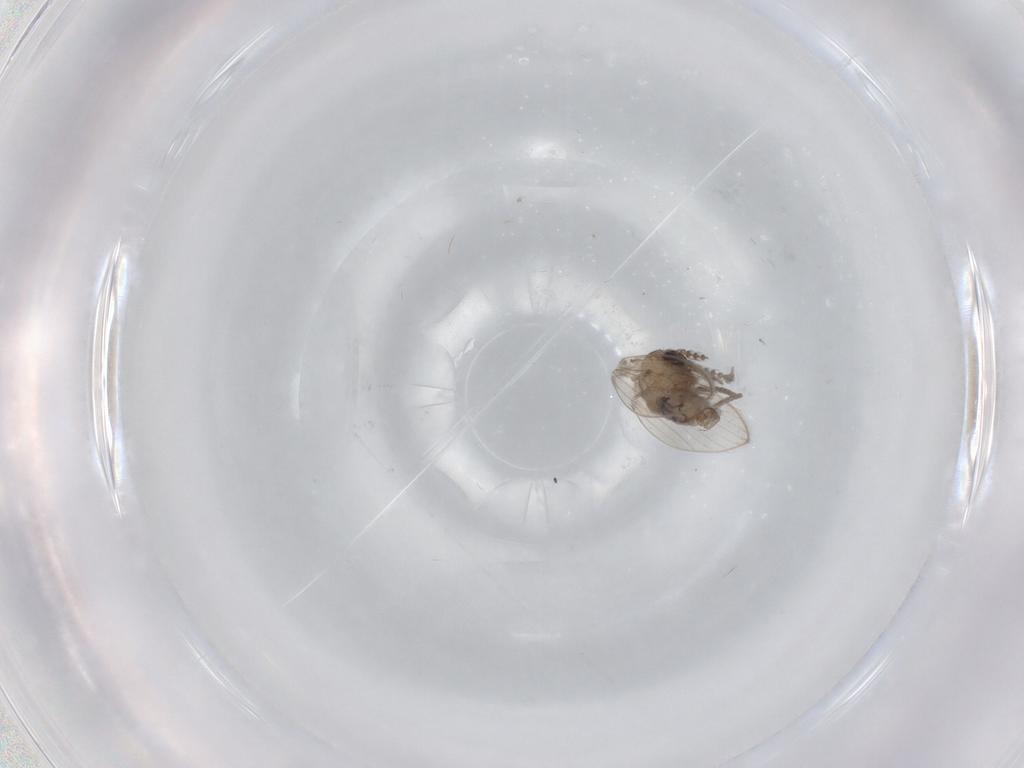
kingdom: Animalia
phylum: Arthropoda
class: Insecta
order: Diptera
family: Psychodidae
